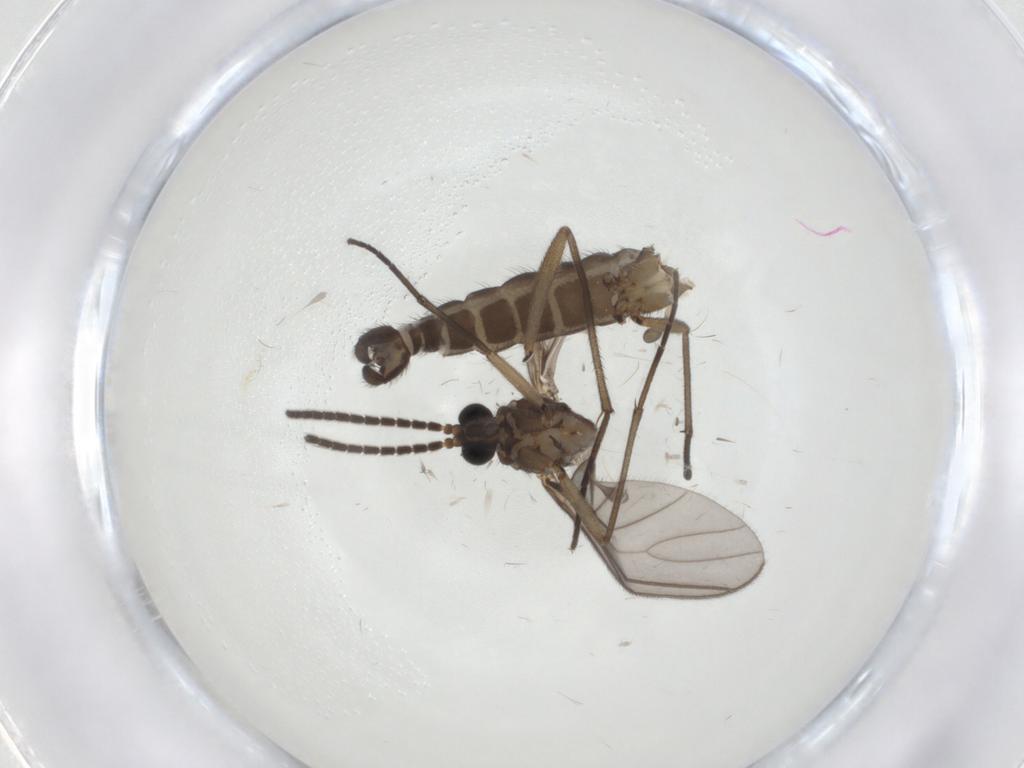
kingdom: Animalia
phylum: Arthropoda
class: Insecta
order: Diptera
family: Sciaridae
